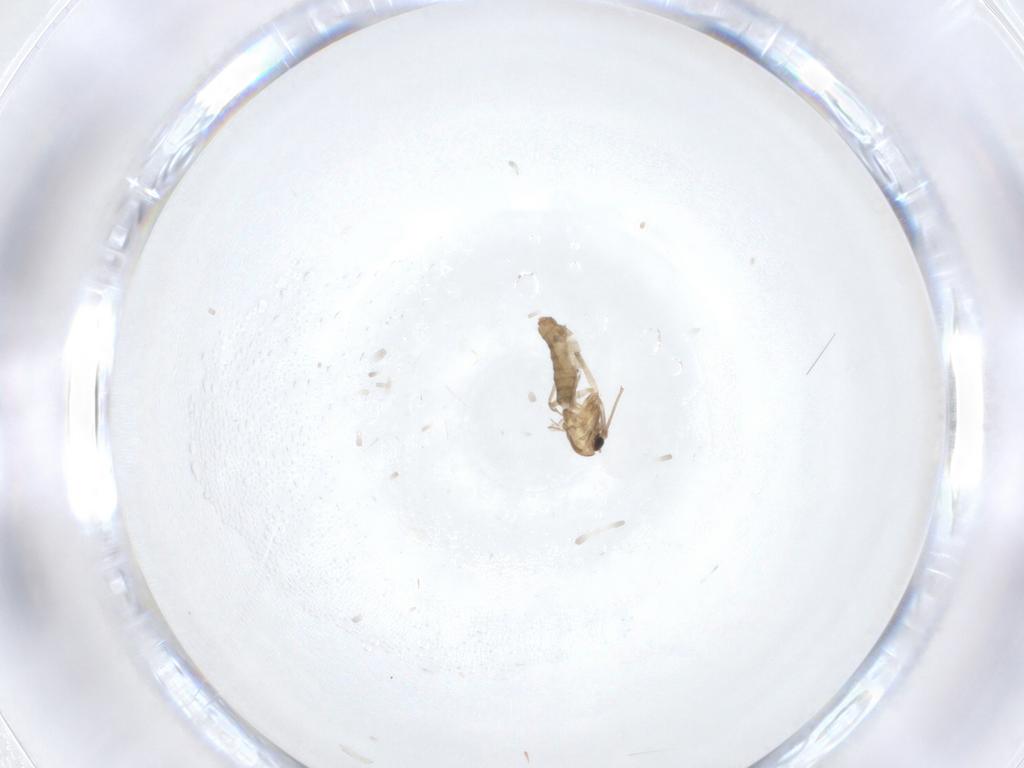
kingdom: Animalia
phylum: Arthropoda
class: Insecta
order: Diptera
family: Chironomidae
